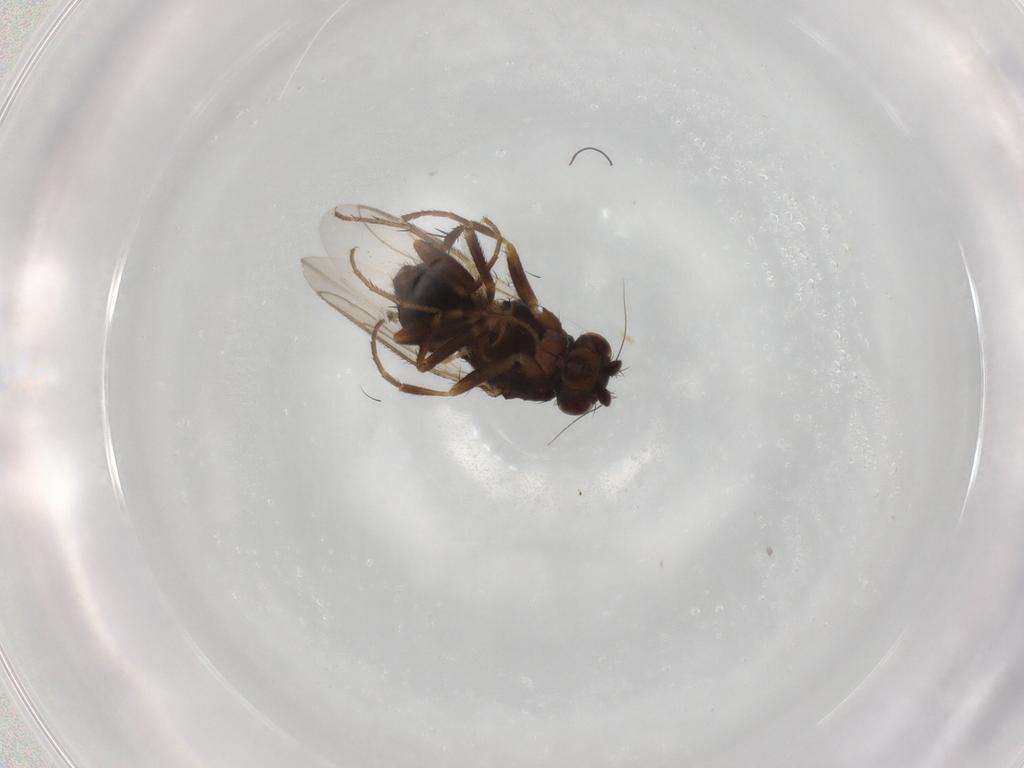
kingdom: Animalia
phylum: Arthropoda
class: Insecta
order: Diptera
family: Sphaeroceridae
